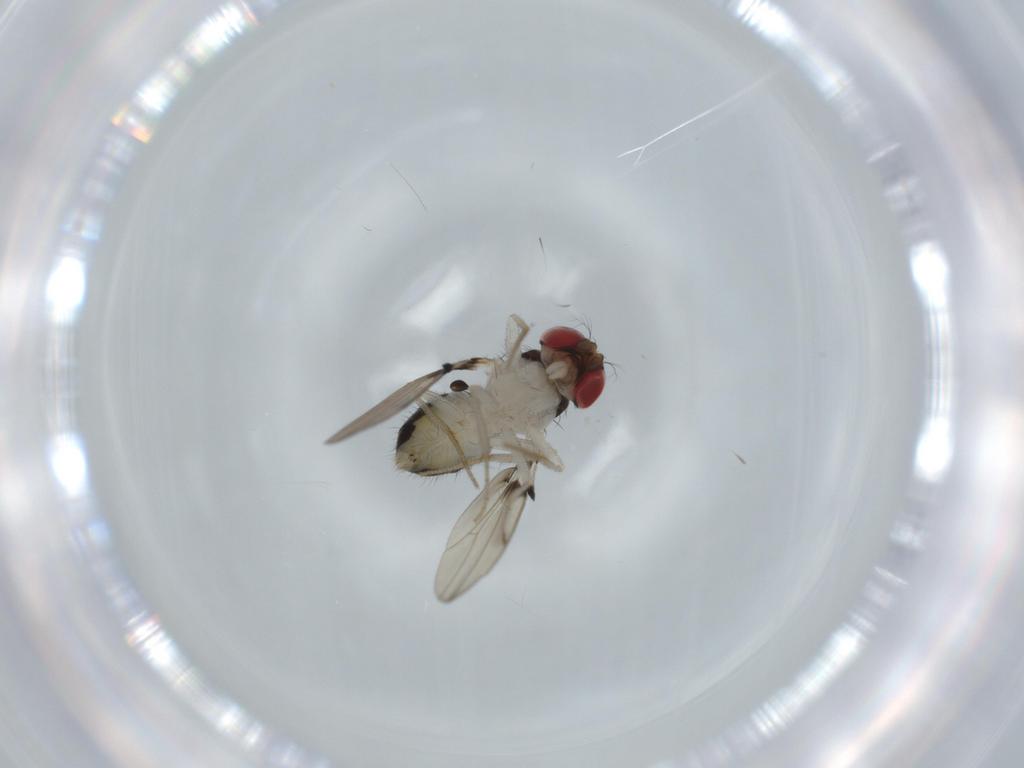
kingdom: Animalia
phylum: Arthropoda
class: Insecta
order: Diptera
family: Drosophilidae
